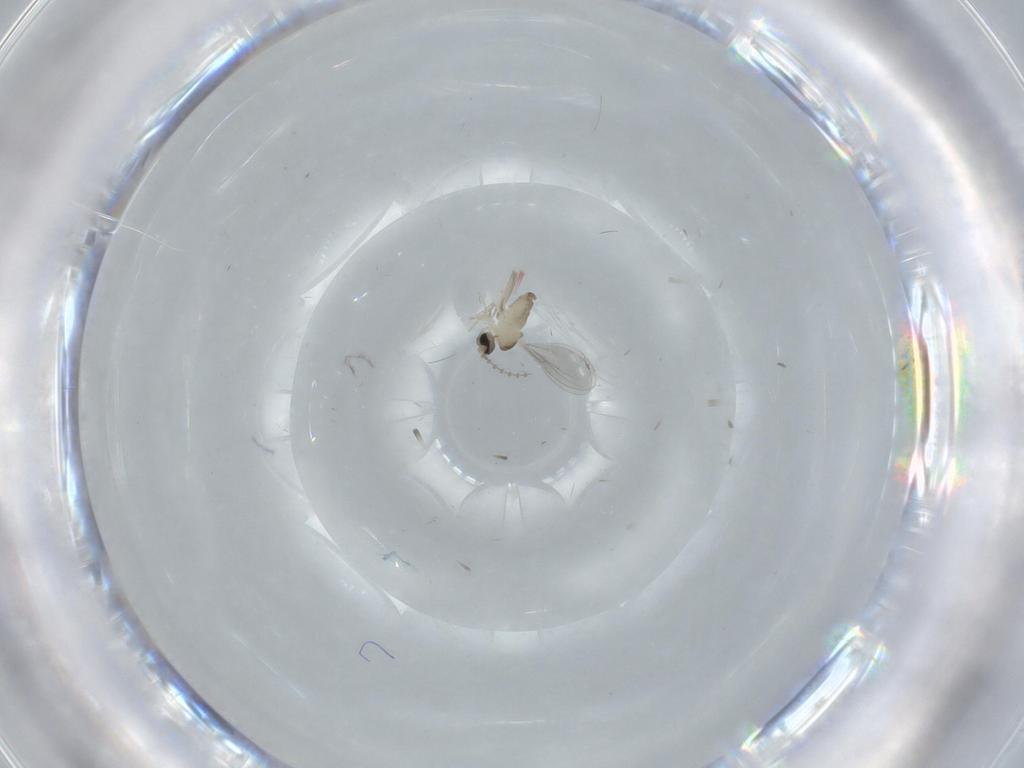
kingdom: Animalia
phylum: Arthropoda
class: Insecta
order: Diptera
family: Cecidomyiidae
